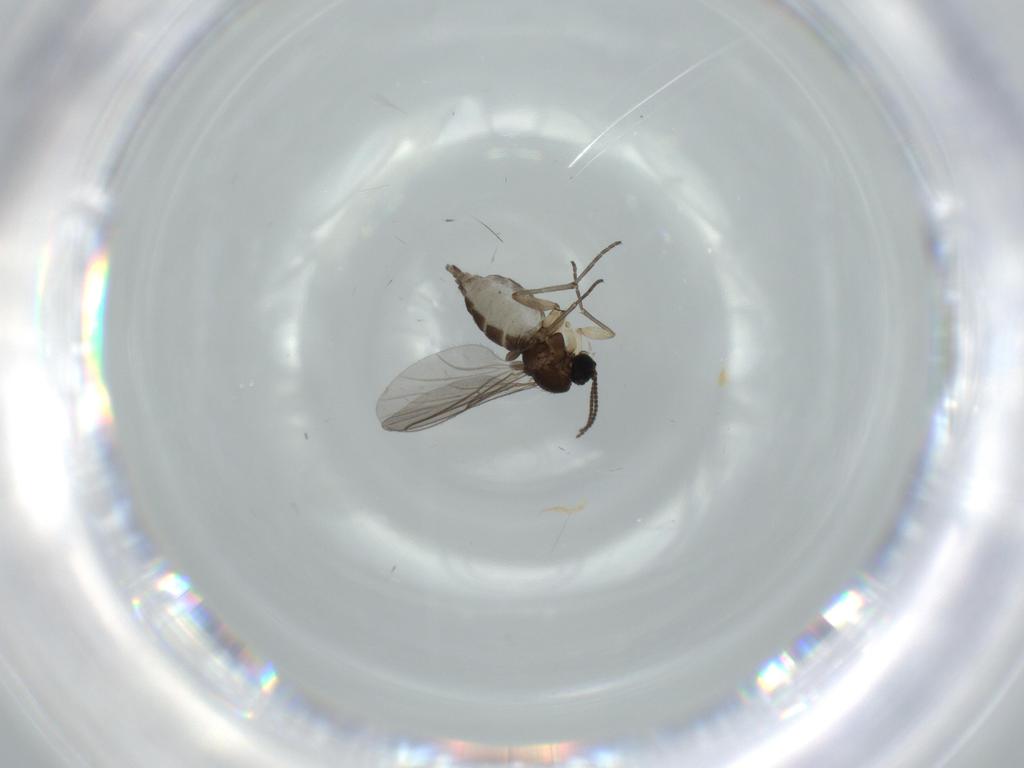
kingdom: Animalia
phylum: Arthropoda
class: Insecta
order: Diptera
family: Sciaridae
